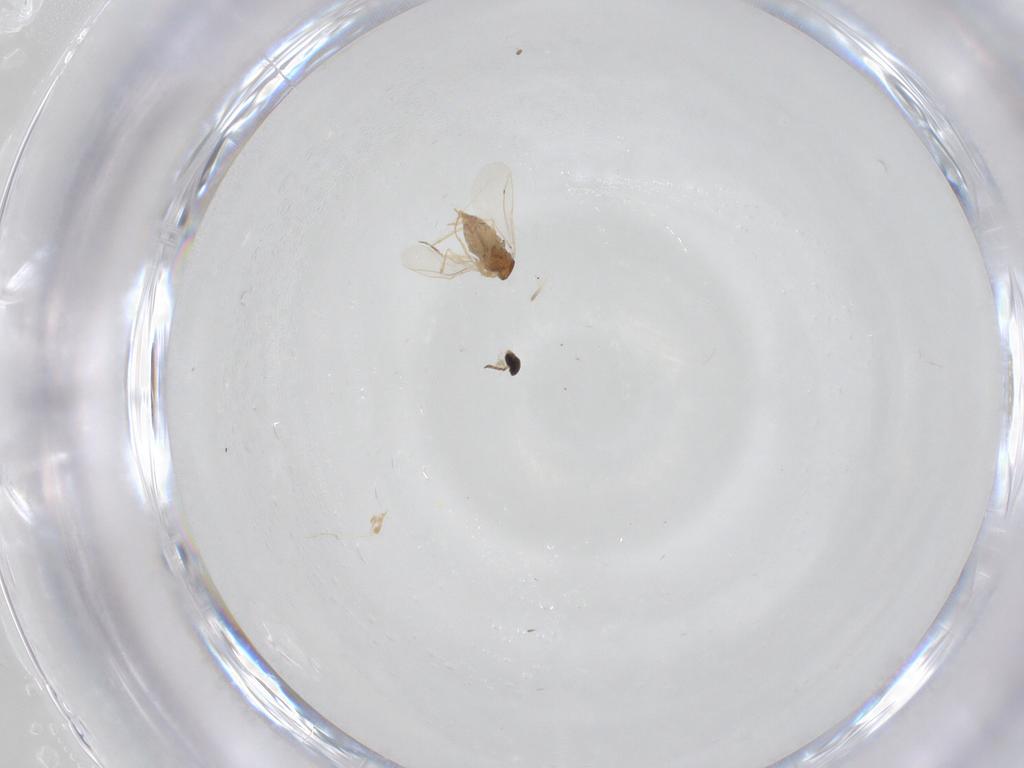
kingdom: Animalia
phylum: Arthropoda
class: Insecta
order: Diptera
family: Cecidomyiidae
